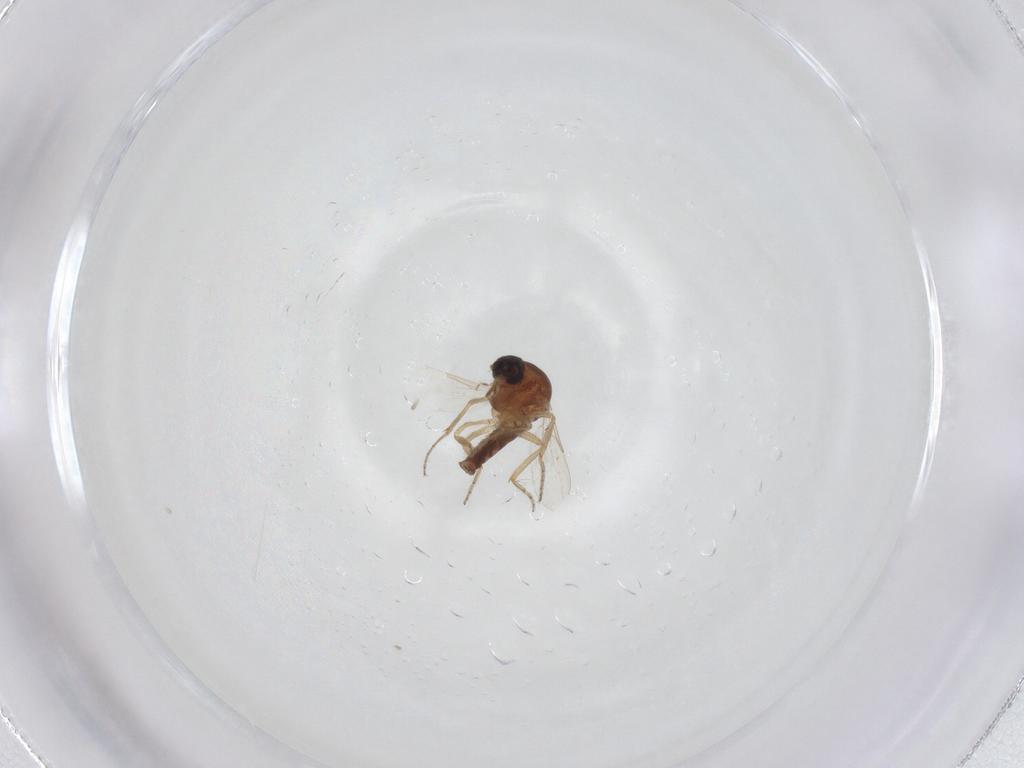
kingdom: Animalia
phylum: Arthropoda
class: Insecta
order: Diptera
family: Ceratopogonidae
